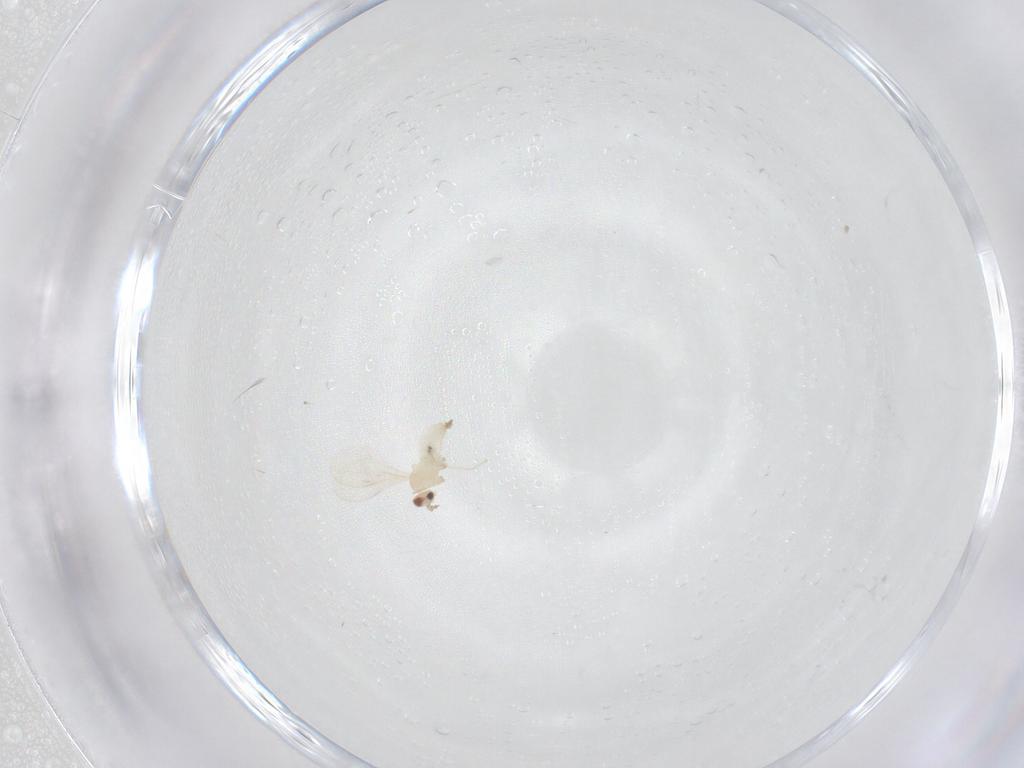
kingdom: Animalia
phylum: Arthropoda
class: Insecta
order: Diptera
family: Cecidomyiidae
